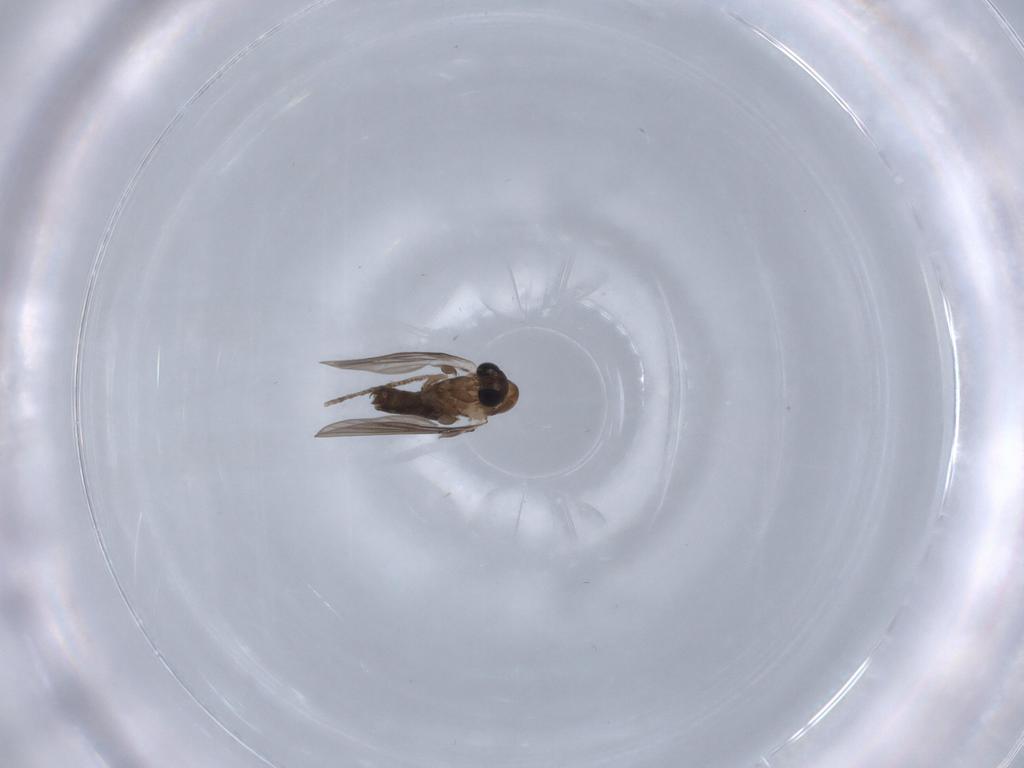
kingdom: Animalia
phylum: Arthropoda
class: Insecta
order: Diptera
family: Psychodidae
